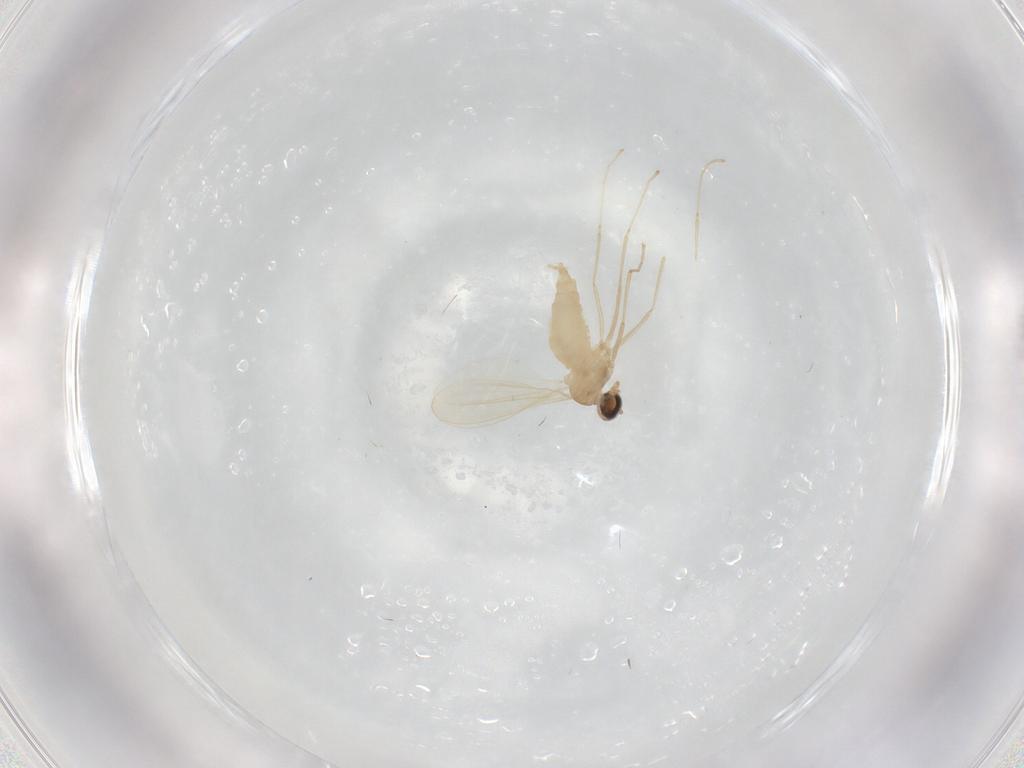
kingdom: Animalia
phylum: Arthropoda
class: Insecta
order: Diptera
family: Cecidomyiidae
